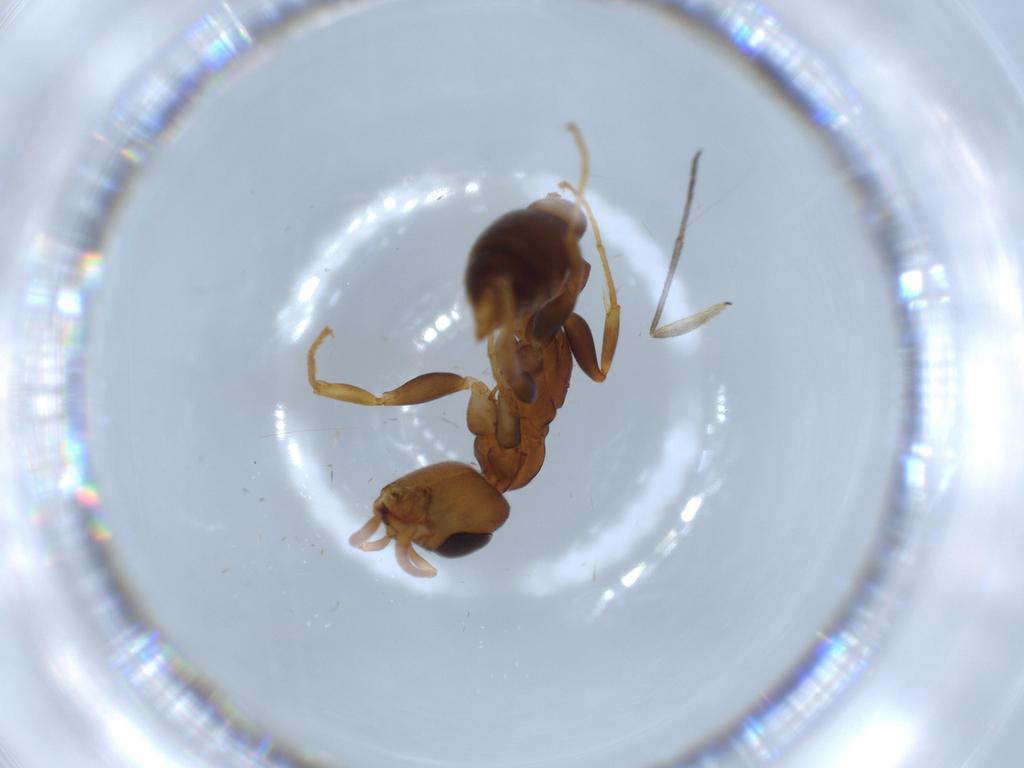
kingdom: Animalia
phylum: Arthropoda
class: Insecta
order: Hymenoptera
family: Formicidae
